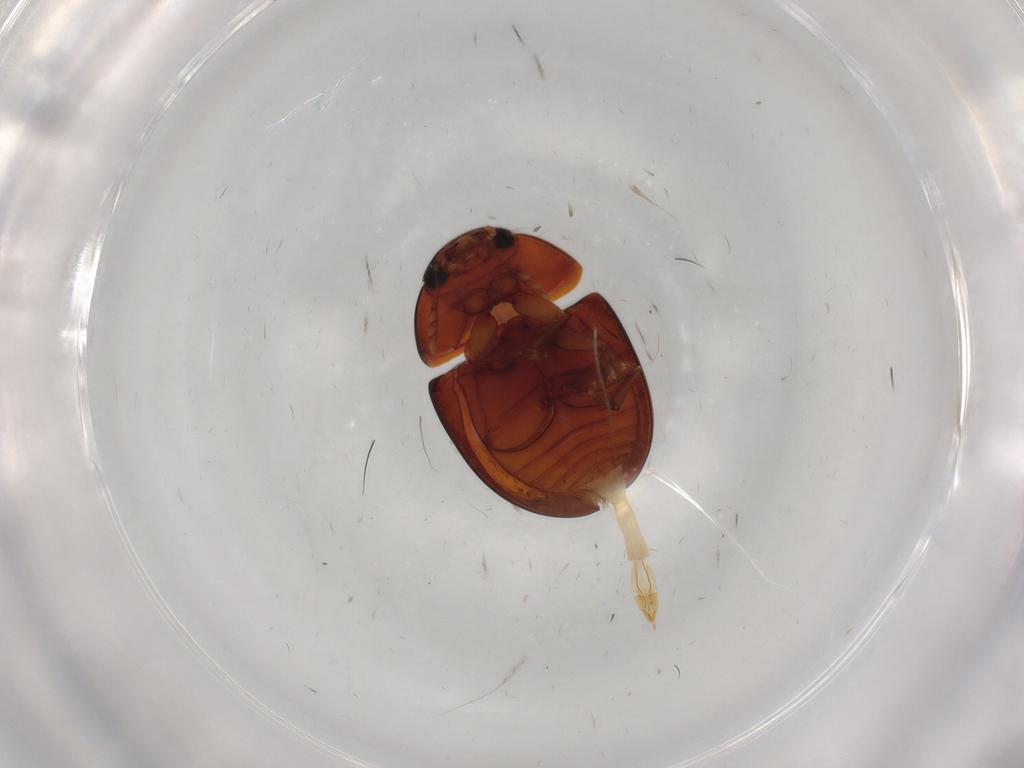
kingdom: Animalia
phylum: Arthropoda
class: Insecta
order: Coleoptera
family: Phalacridae
